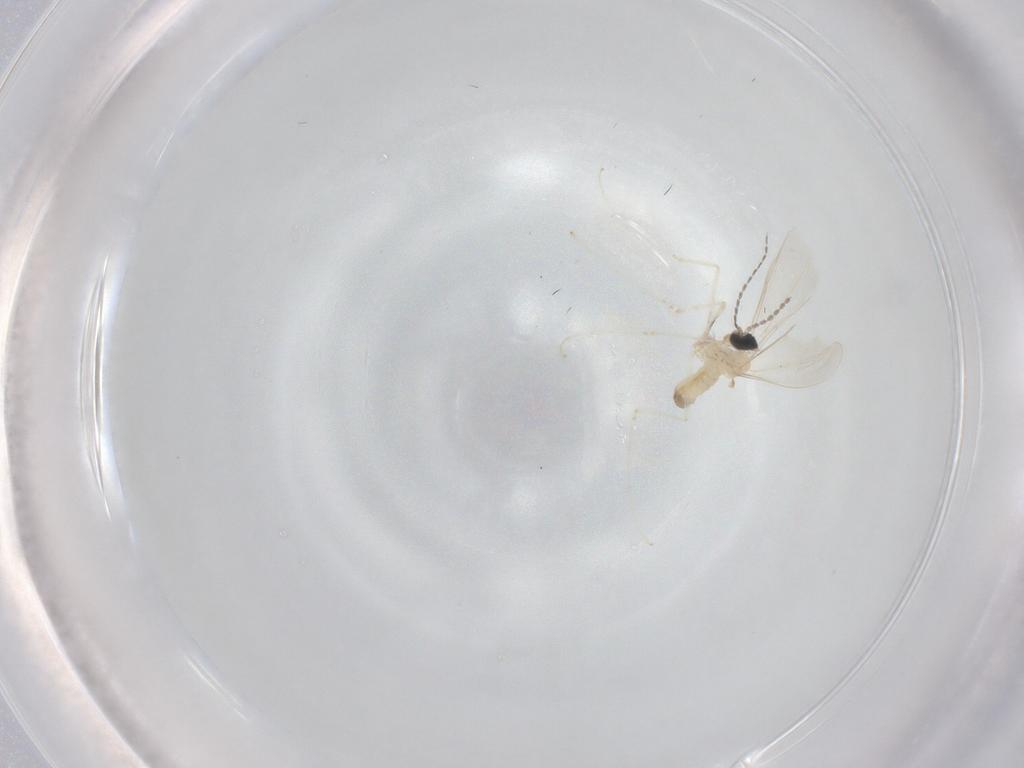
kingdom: Animalia
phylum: Arthropoda
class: Insecta
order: Diptera
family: Cecidomyiidae
